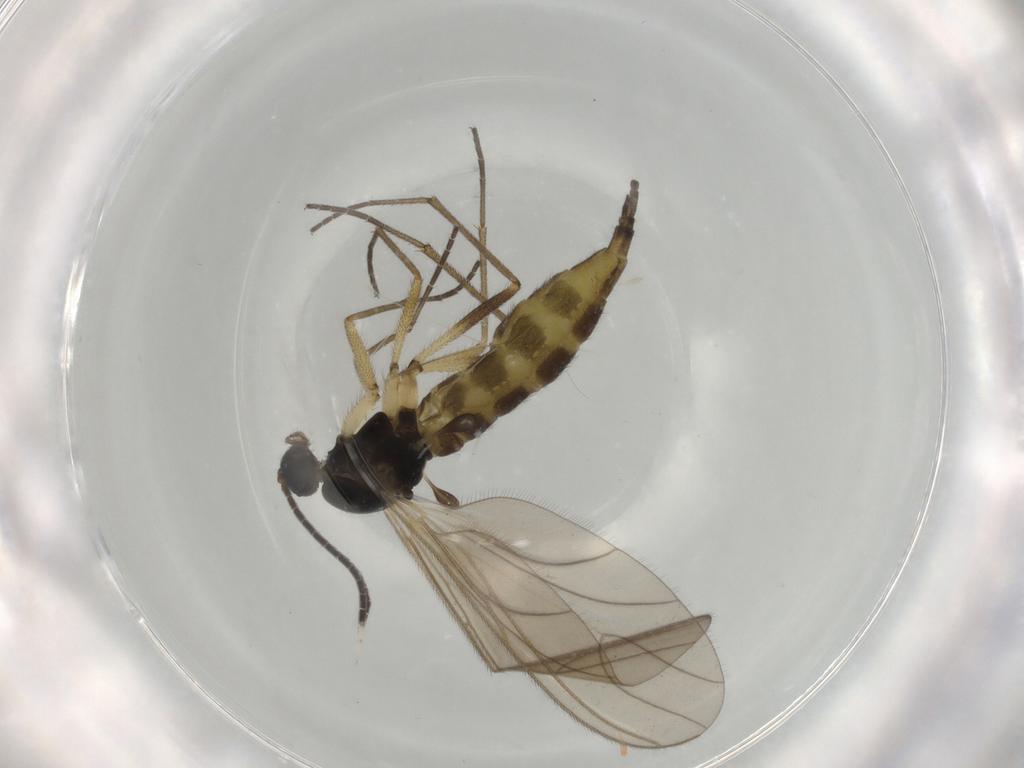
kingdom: Animalia
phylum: Arthropoda
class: Insecta
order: Diptera
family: Sciaridae
